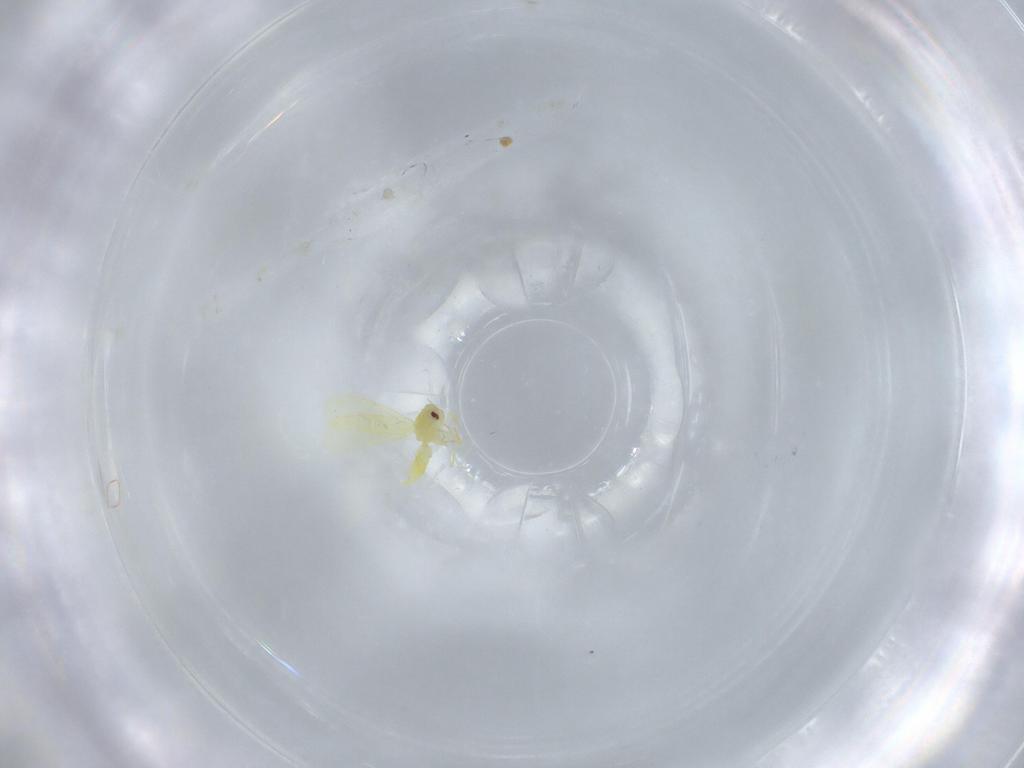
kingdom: Animalia
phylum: Arthropoda
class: Insecta
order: Hemiptera
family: Aleyrodidae
